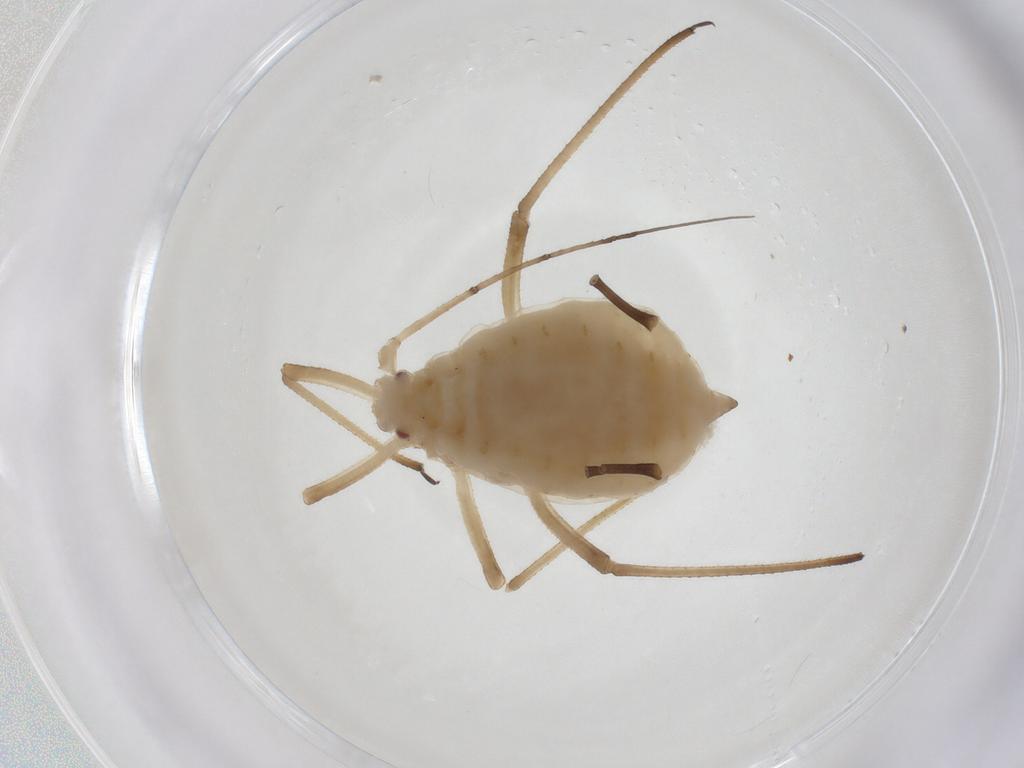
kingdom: Animalia
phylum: Arthropoda
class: Insecta
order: Hemiptera
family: Aphididae
